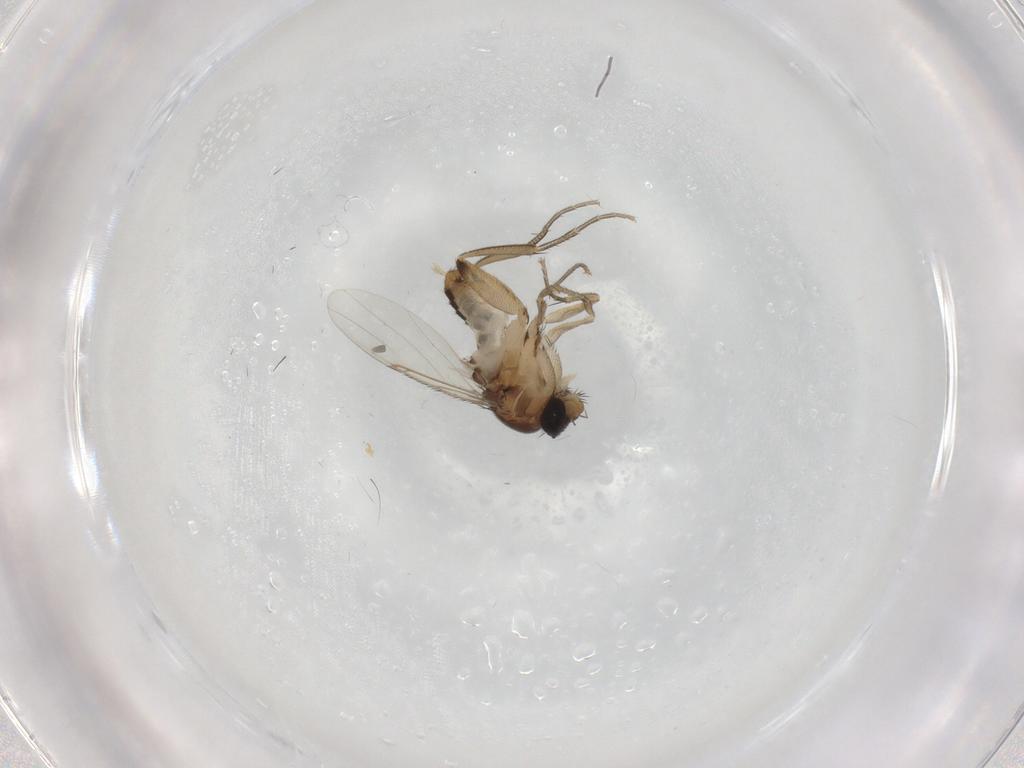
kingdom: Animalia
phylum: Arthropoda
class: Insecta
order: Diptera
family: Phoridae
